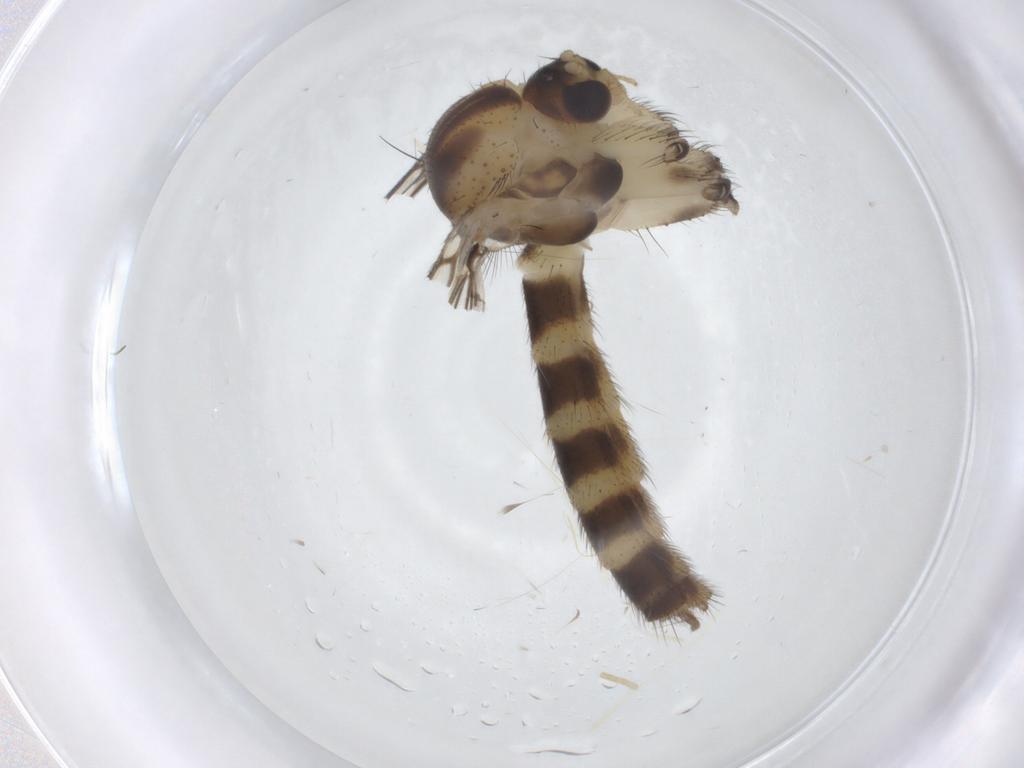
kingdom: Animalia
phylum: Arthropoda
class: Insecta
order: Diptera
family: Mycetophilidae
